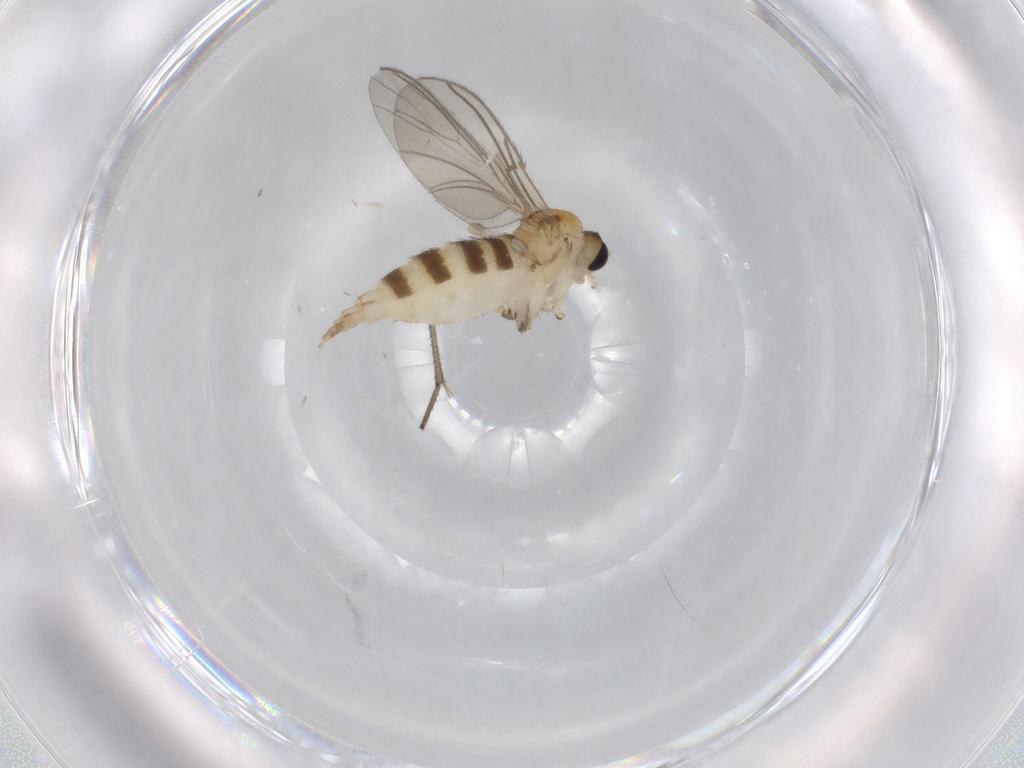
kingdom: Animalia
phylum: Arthropoda
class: Insecta
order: Diptera
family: Sciaridae
